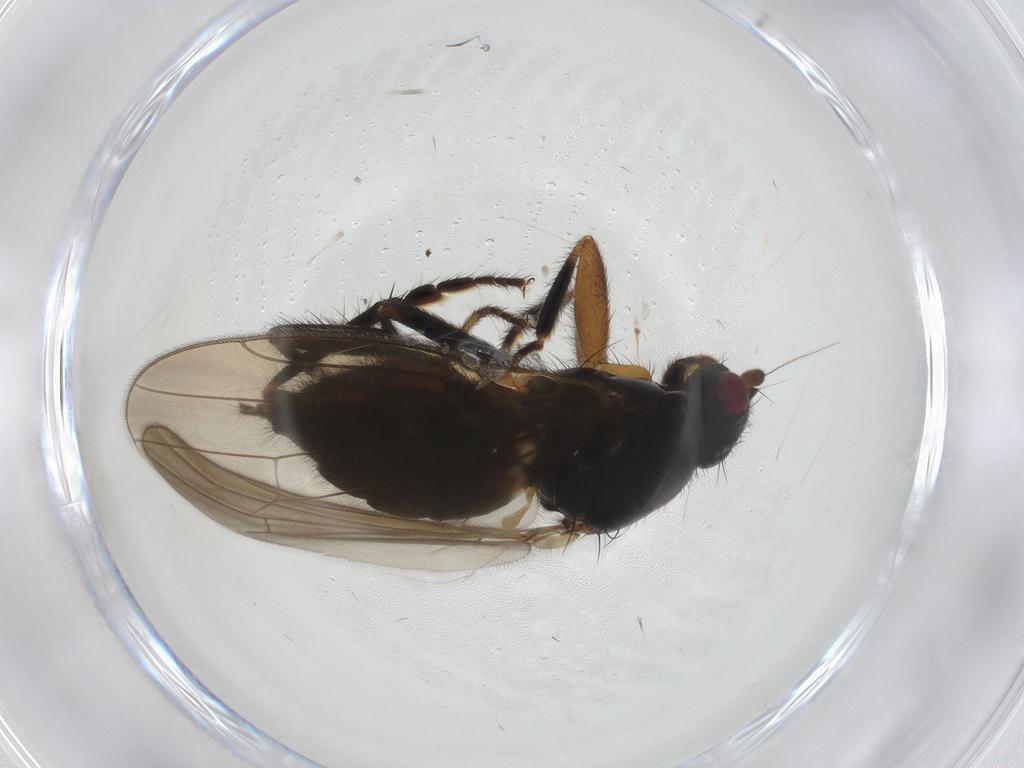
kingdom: Animalia
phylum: Arthropoda
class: Insecta
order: Diptera
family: Sphaeroceridae
